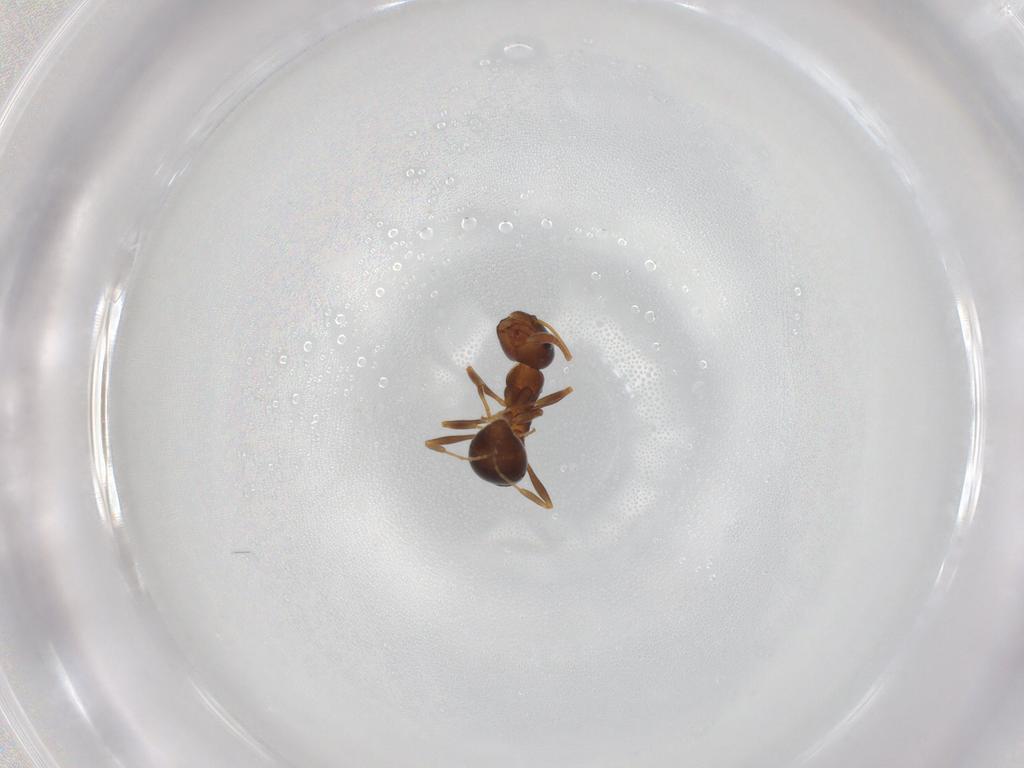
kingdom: Animalia
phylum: Arthropoda
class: Insecta
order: Hymenoptera
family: Formicidae
